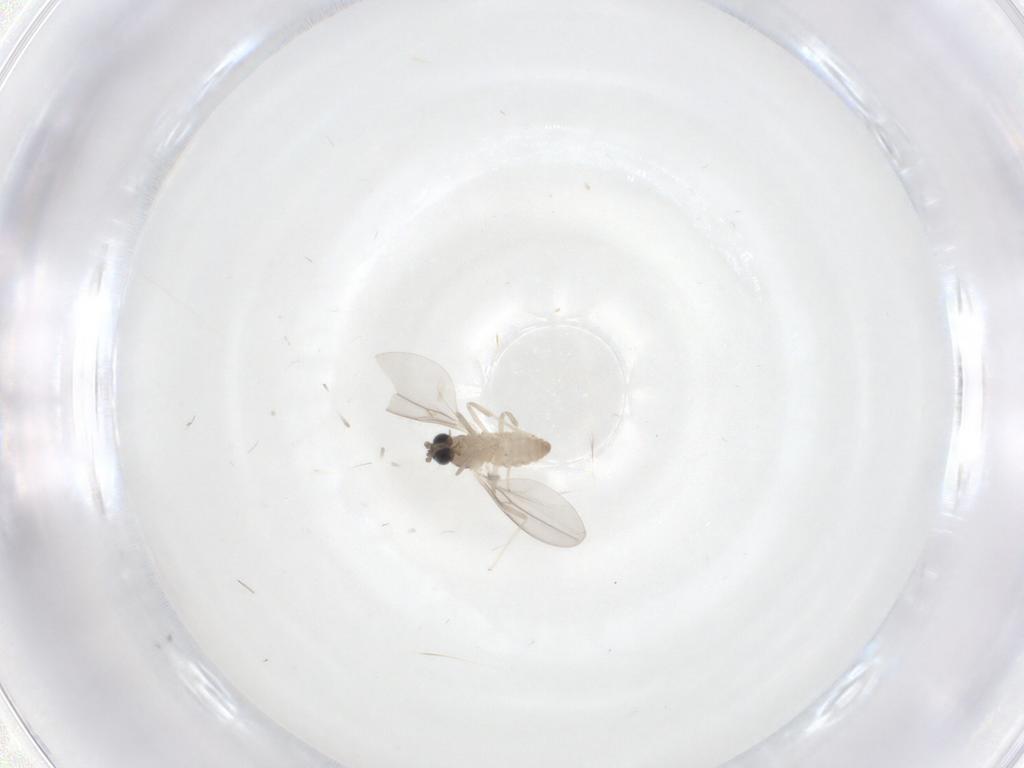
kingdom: Animalia
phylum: Arthropoda
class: Insecta
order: Diptera
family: Cecidomyiidae
